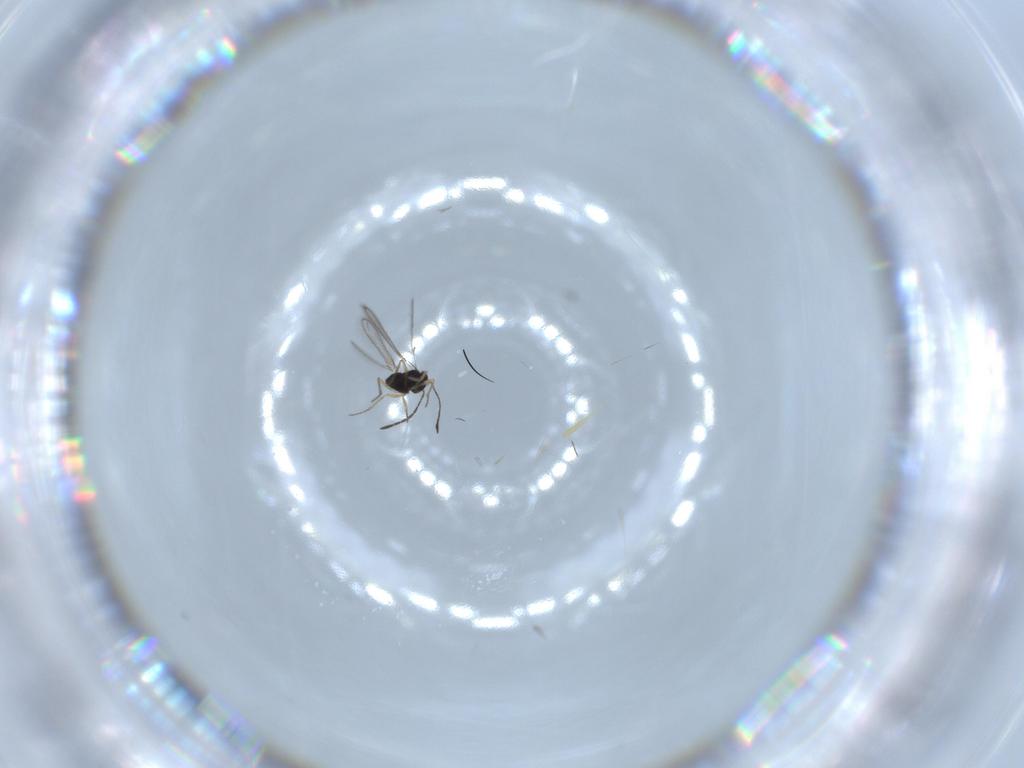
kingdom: Animalia
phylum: Arthropoda
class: Insecta
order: Hymenoptera
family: Mymaridae
